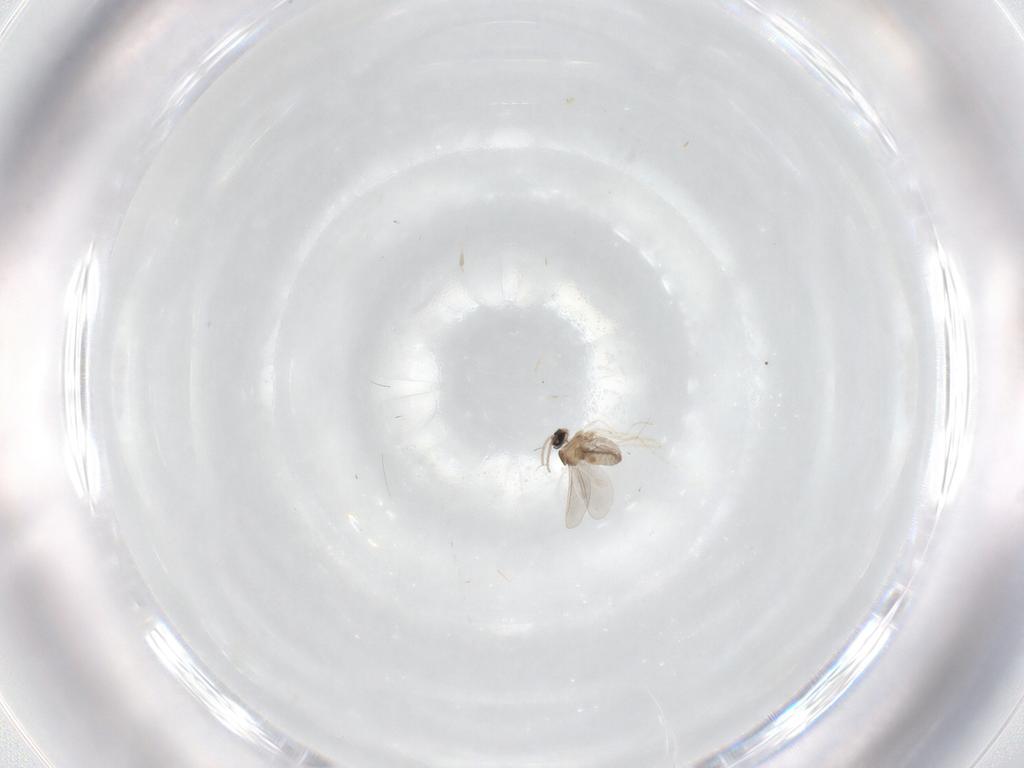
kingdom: Animalia
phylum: Arthropoda
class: Insecta
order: Diptera
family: Cecidomyiidae
